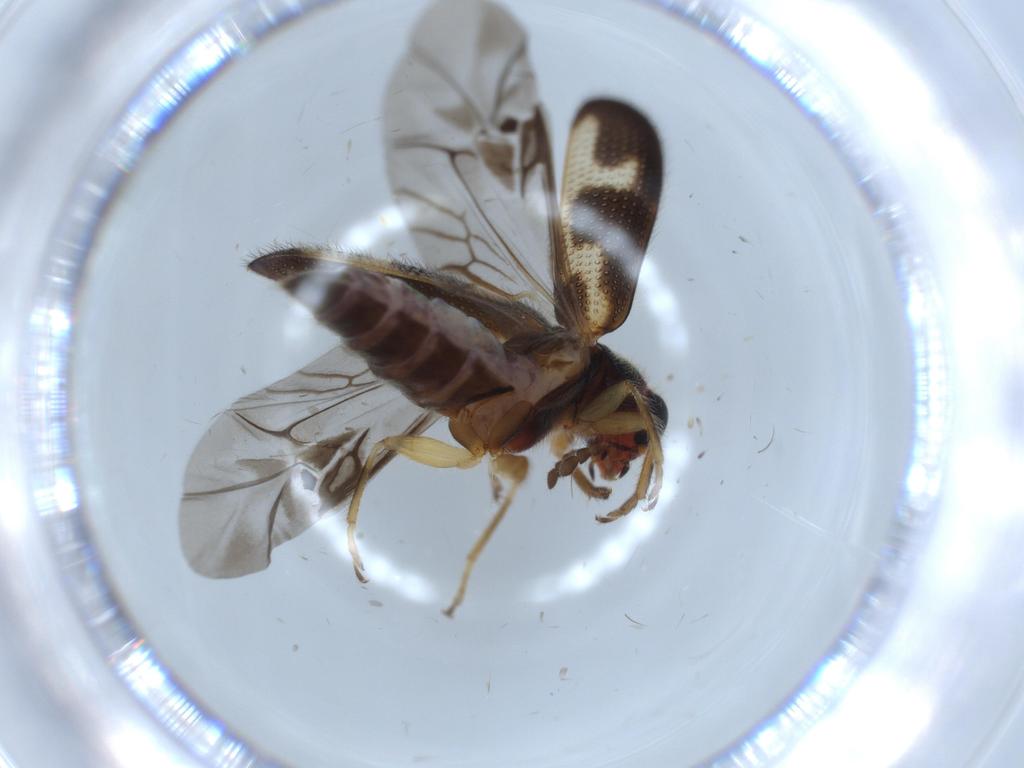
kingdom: Animalia
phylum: Arthropoda
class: Insecta
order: Coleoptera
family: Cleridae
